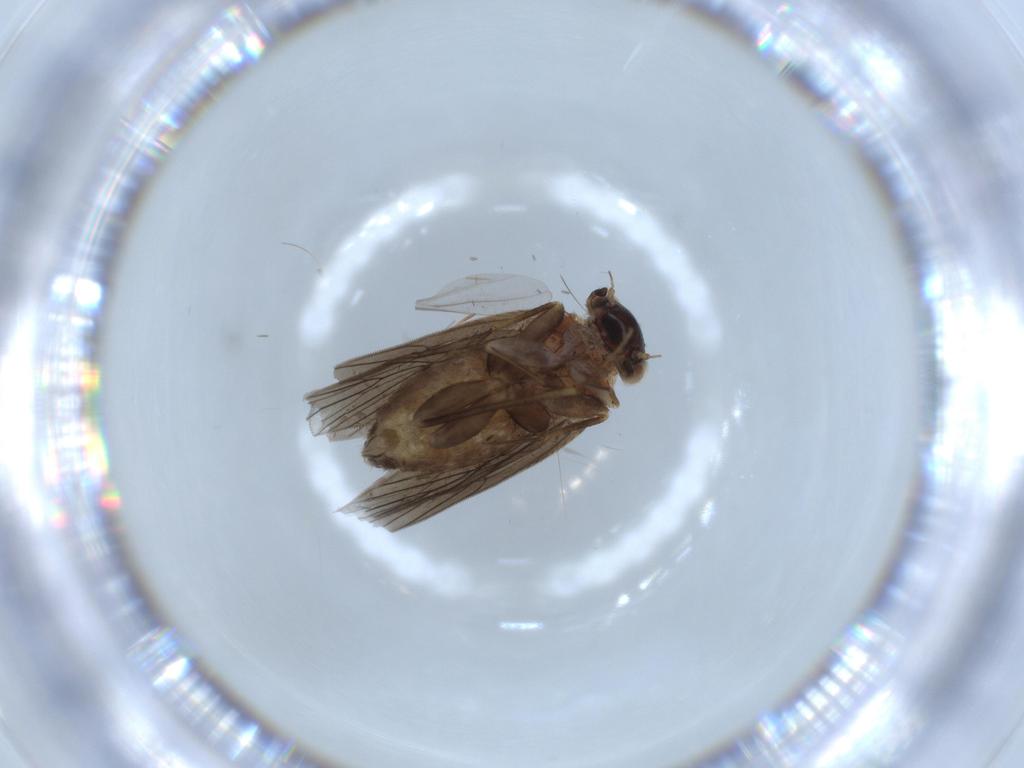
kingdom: Animalia
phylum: Arthropoda
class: Insecta
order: Psocodea
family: Lepidopsocidae
